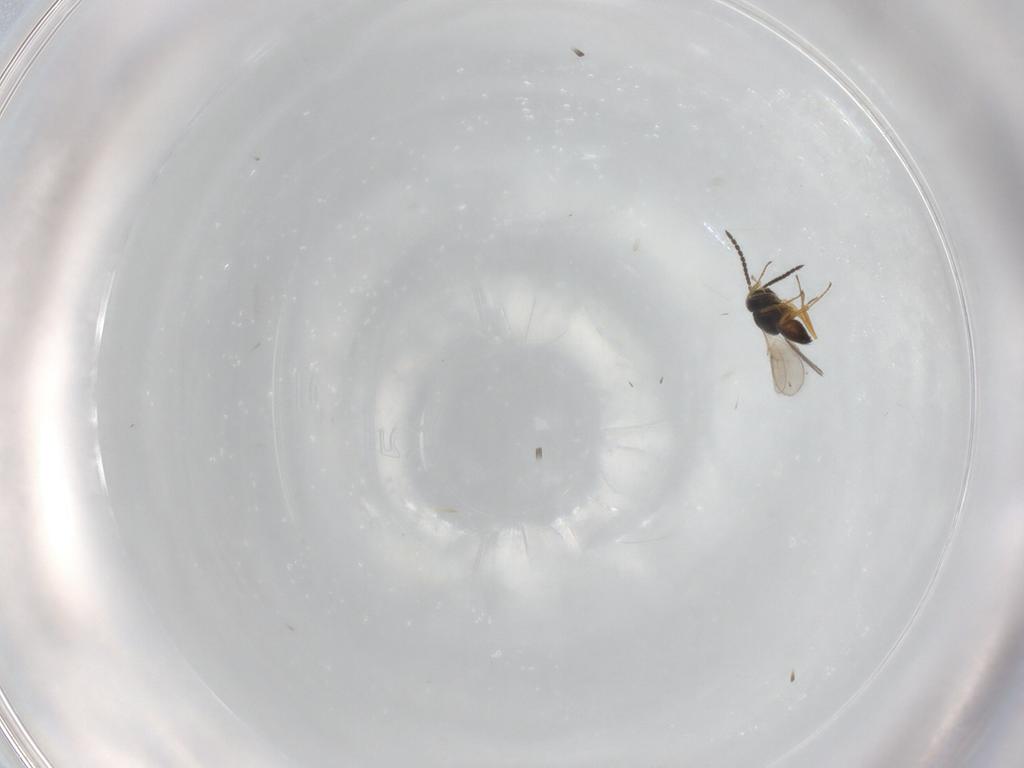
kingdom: Animalia
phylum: Arthropoda
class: Insecta
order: Hymenoptera
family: Scelionidae
